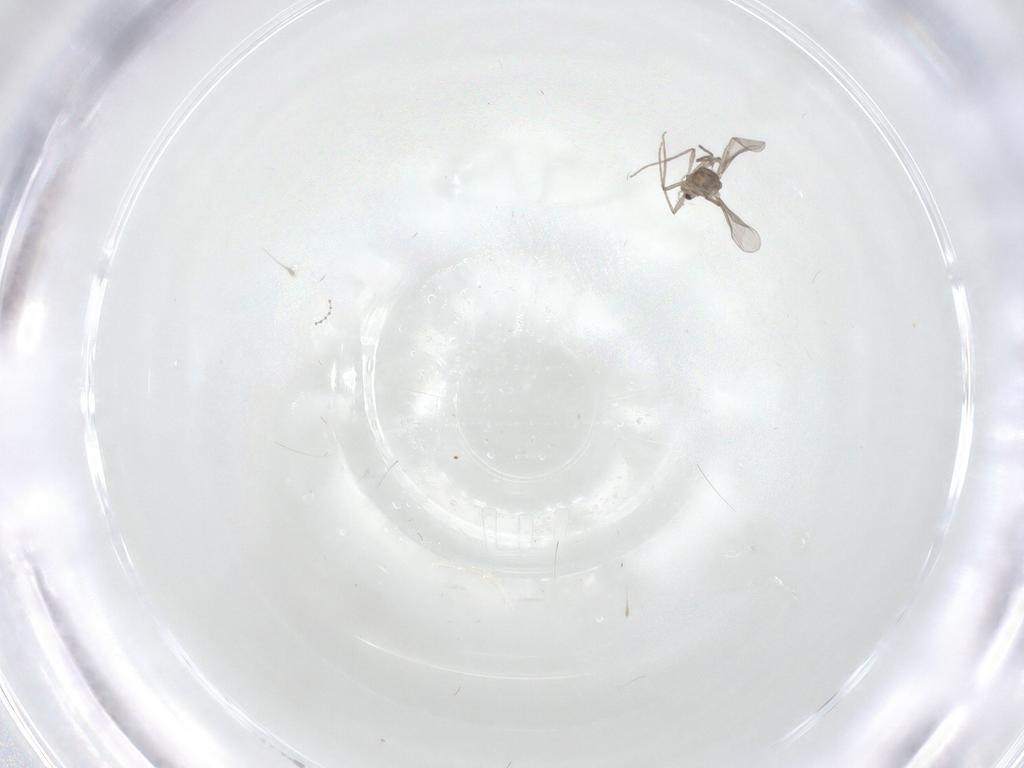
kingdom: Animalia
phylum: Arthropoda
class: Insecta
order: Diptera
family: Chironomidae
